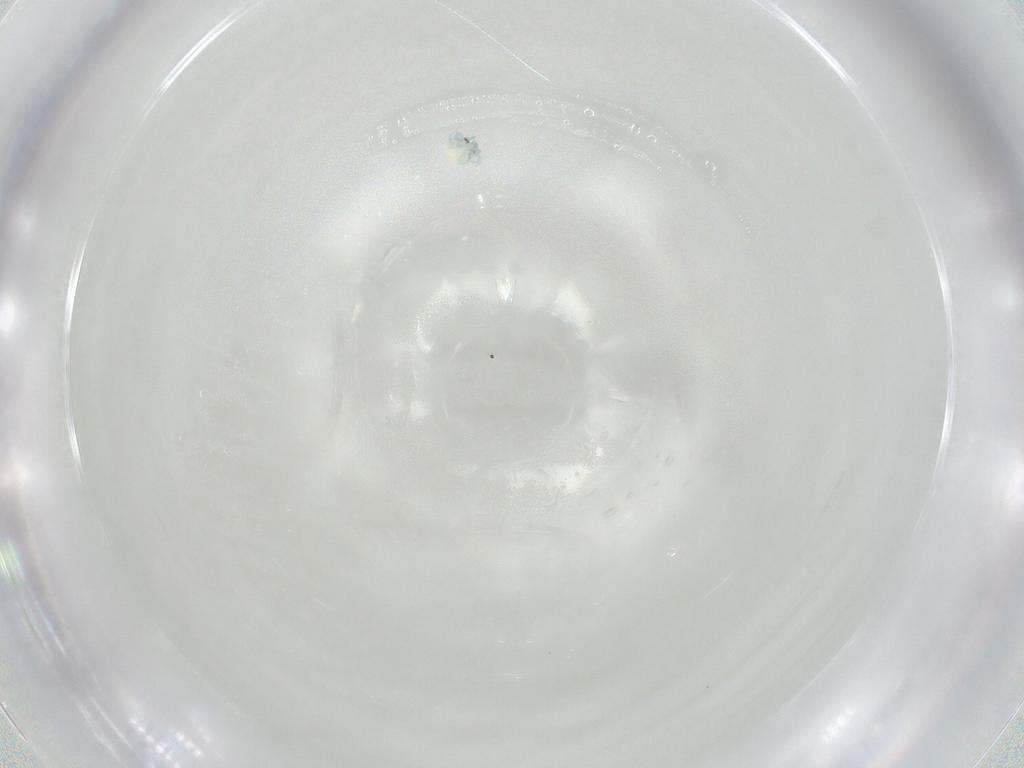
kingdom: Animalia
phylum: Arthropoda
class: Arachnida
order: Trombidiformes
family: Arrenuridae
